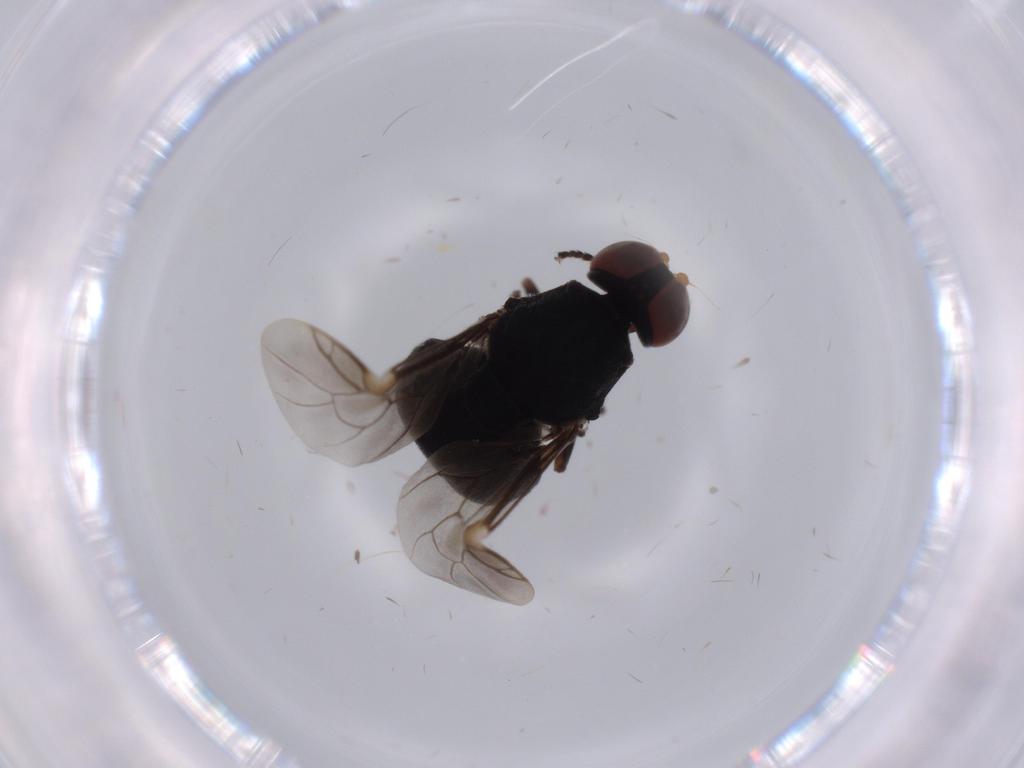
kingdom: Animalia
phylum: Arthropoda
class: Insecta
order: Diptera
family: Stratiomyidae
